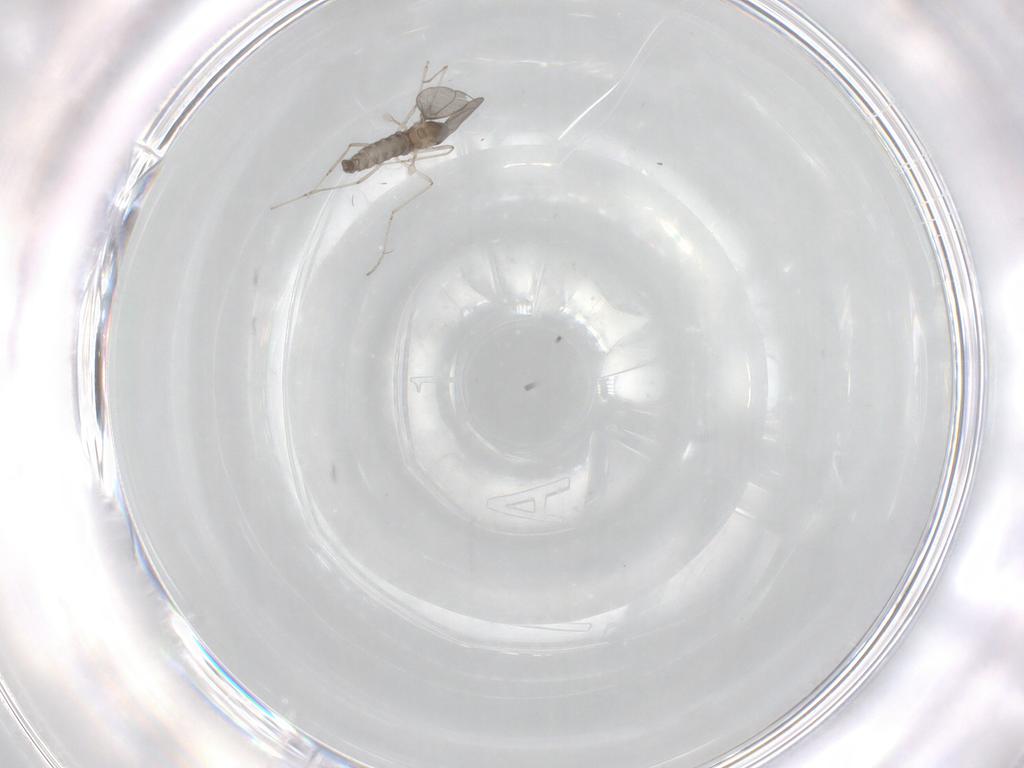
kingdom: Animalia
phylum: Arthropoda
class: Insecta
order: Diptera
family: Cecidomyiidae
